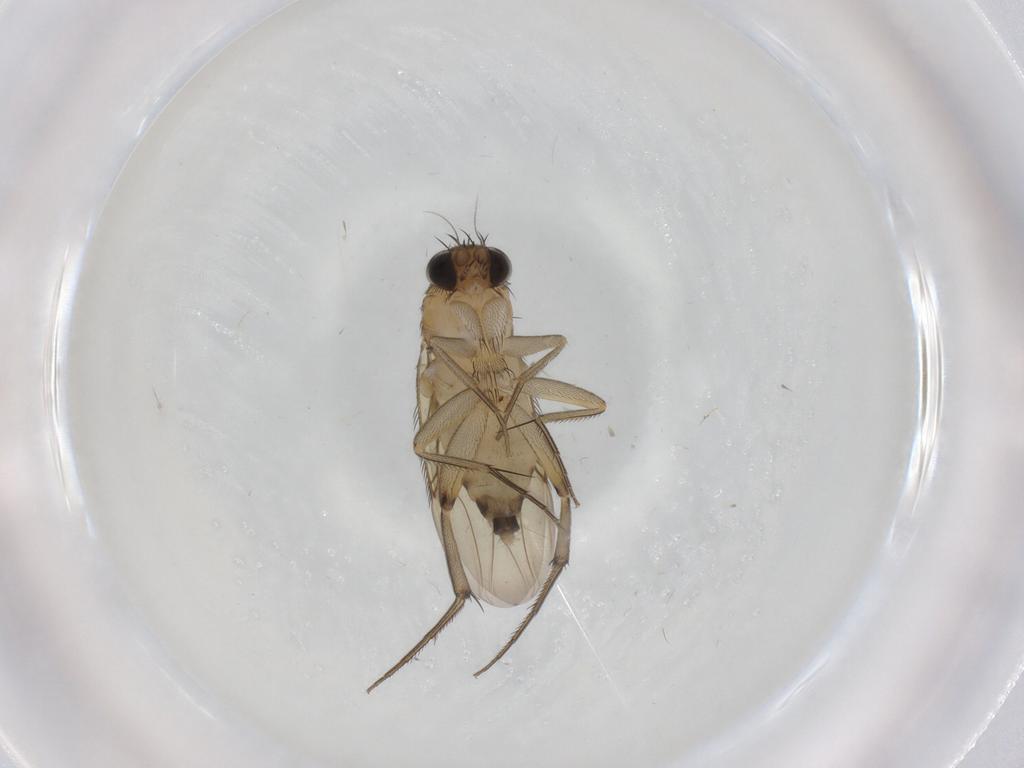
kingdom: Animalia
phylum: Arthropoda
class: Insecta
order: Diptera
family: Phoridae
